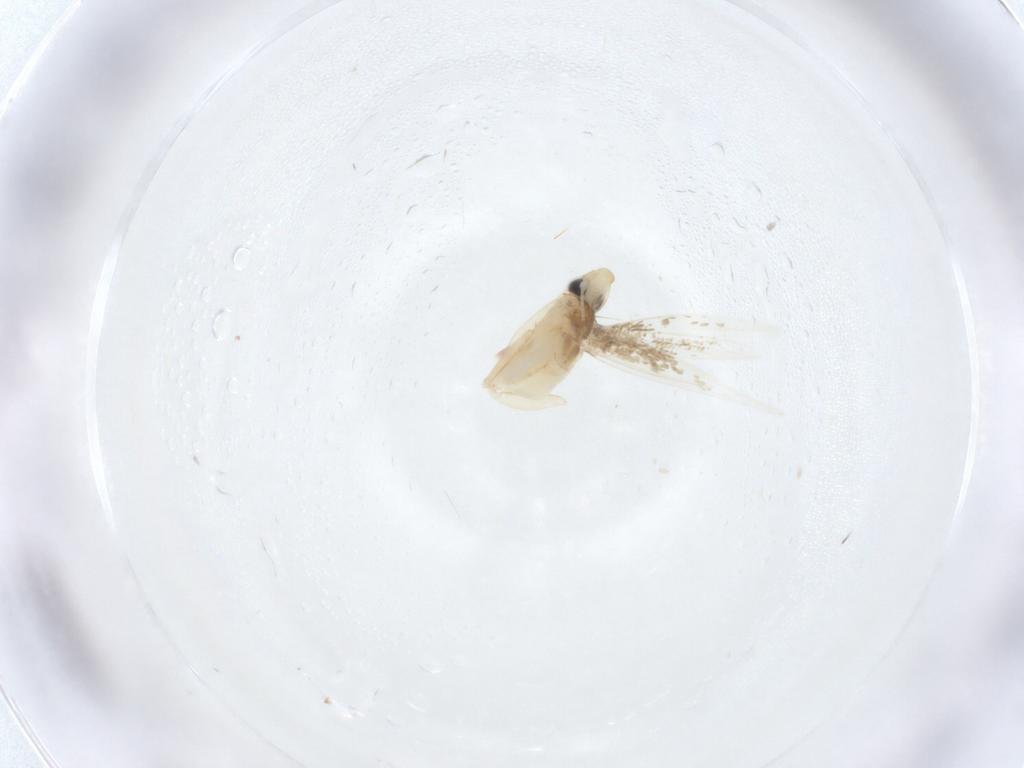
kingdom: Animalia
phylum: Arthropoda
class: Insecta
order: Lepidoptera
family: Psychidae
